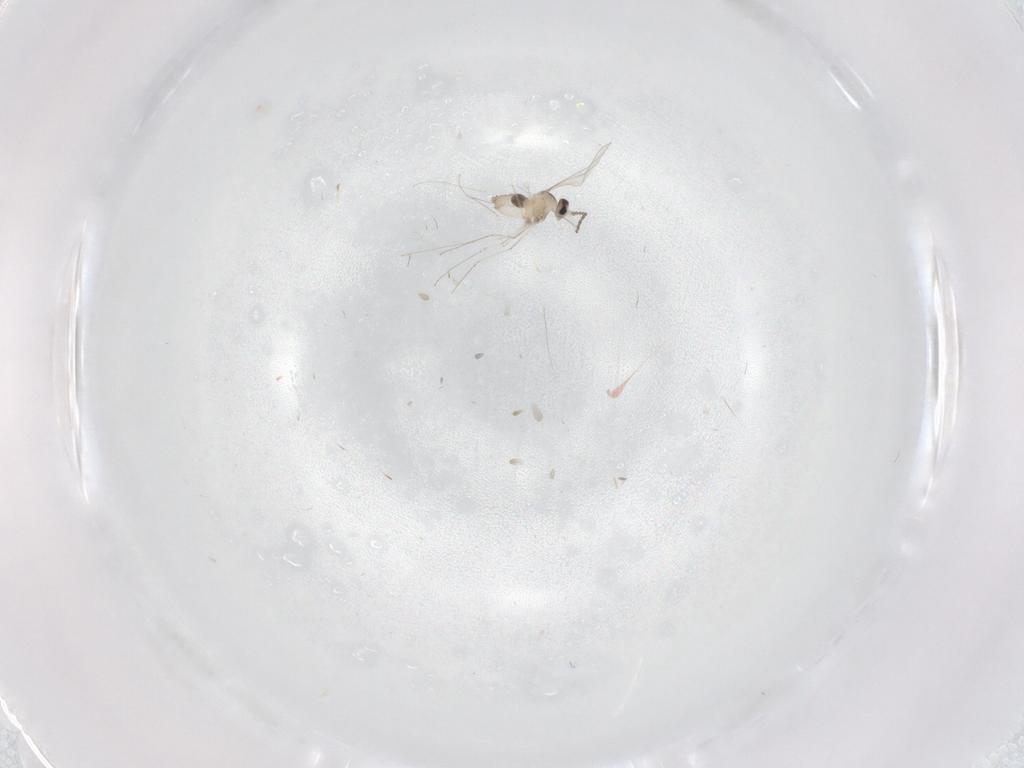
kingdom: Animalia
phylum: Arthropoda
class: Insecta
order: Diptera
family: Cecidomyiidae
